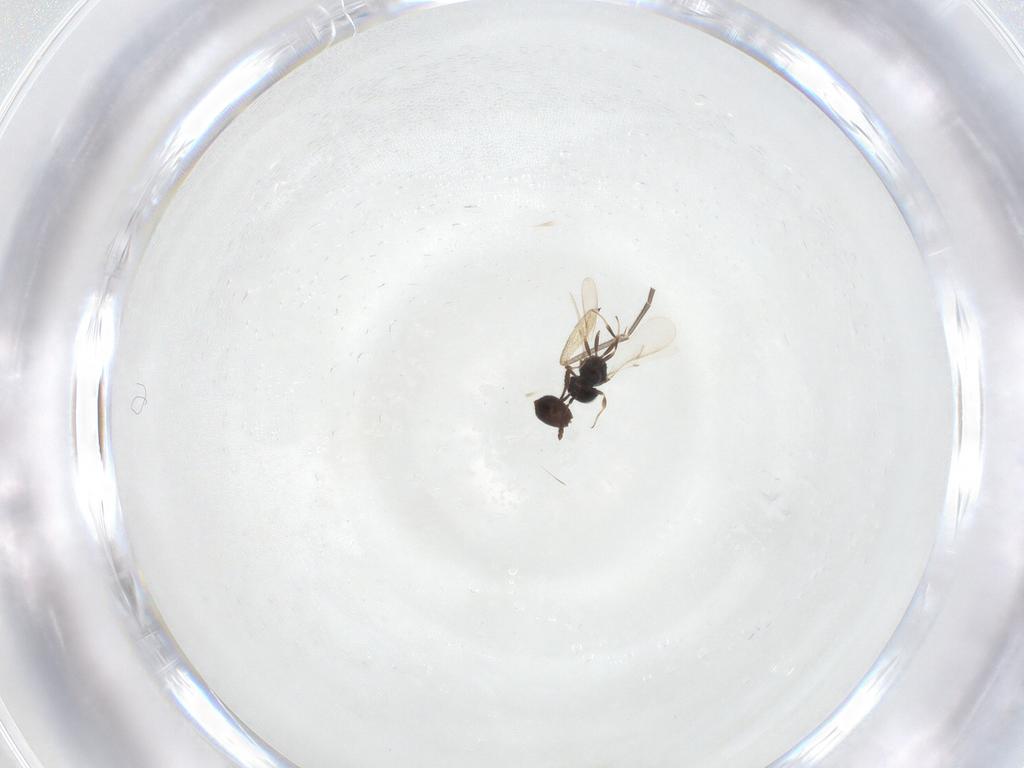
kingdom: Animalia
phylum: Arthropoda
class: Insecta
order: Hymenoptera
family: Scelionidae
